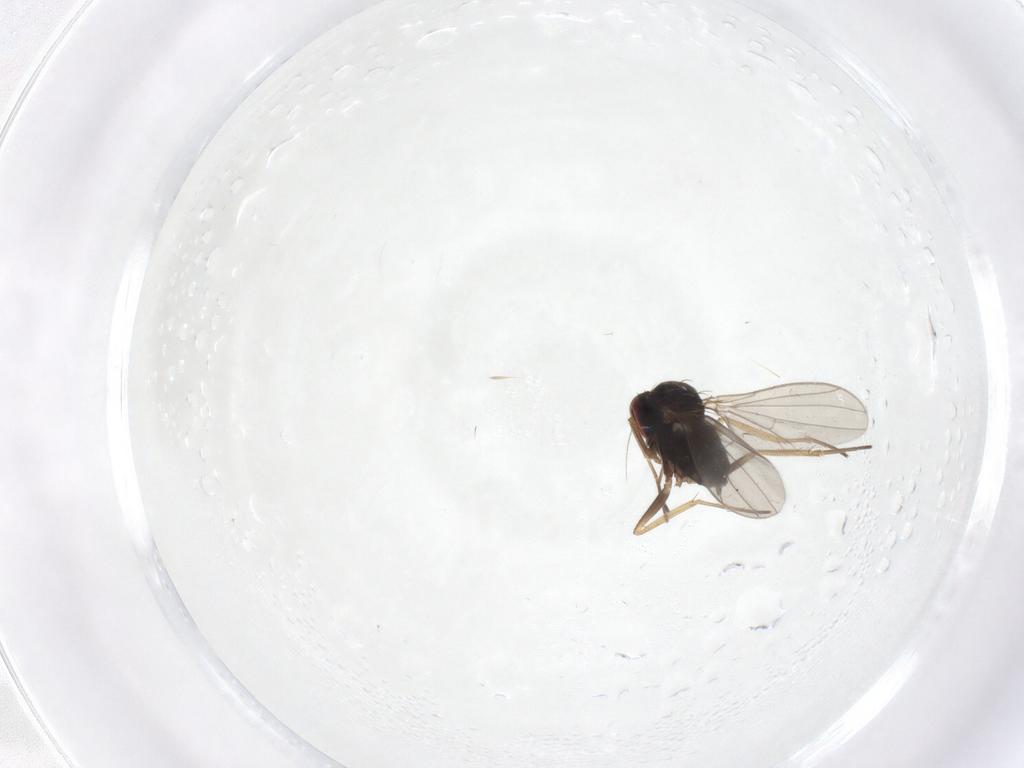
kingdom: Animalia
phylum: Arthropoda
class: Insecta
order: Diptera
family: Dolichopodidae
